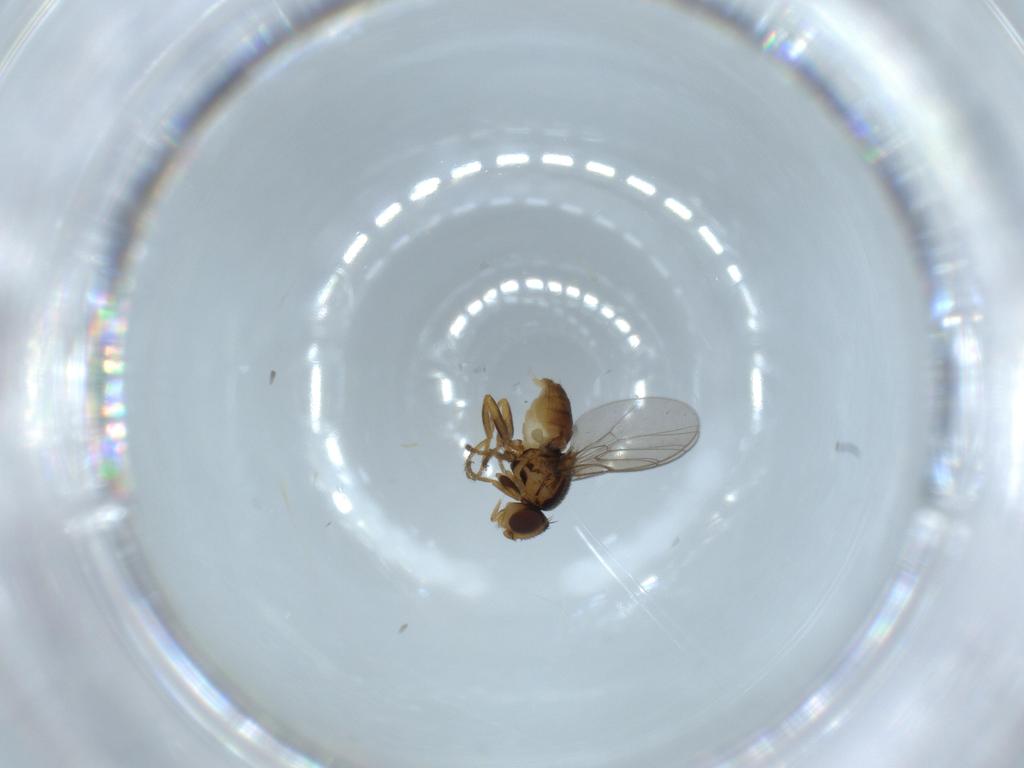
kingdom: Animalia
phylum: Arthropoda
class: Insecta
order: Diptera
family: Chloropidae
